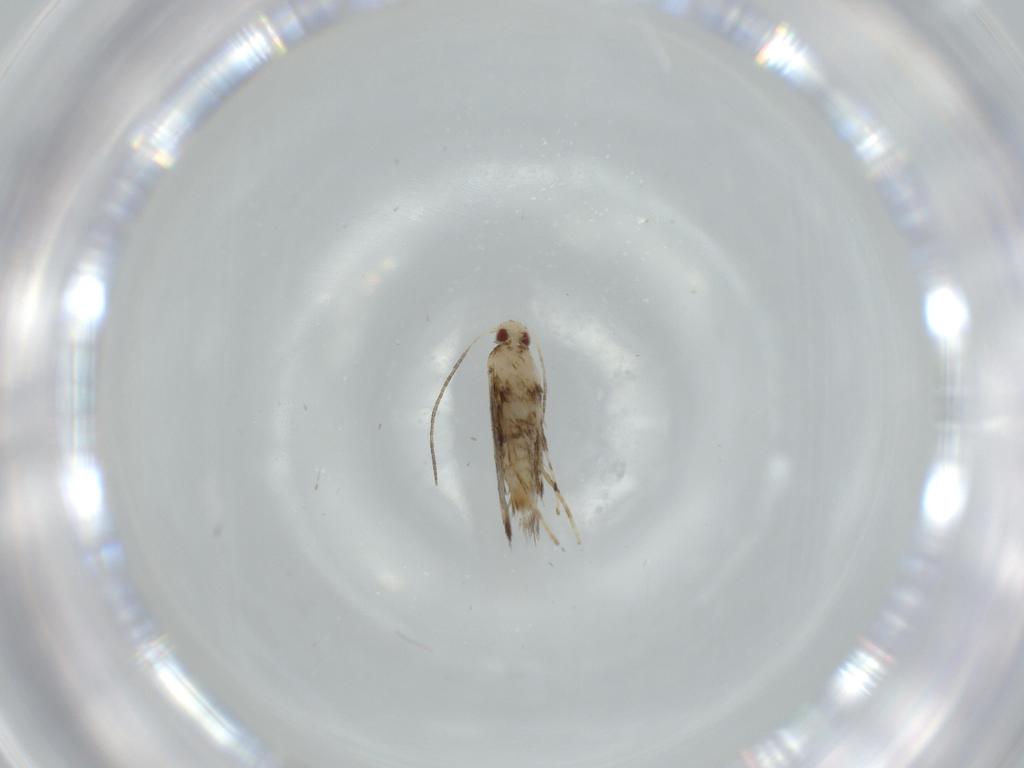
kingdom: Animalia
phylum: Arthropoda
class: Insecta
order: Lepidoptera
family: Gracillariidae
